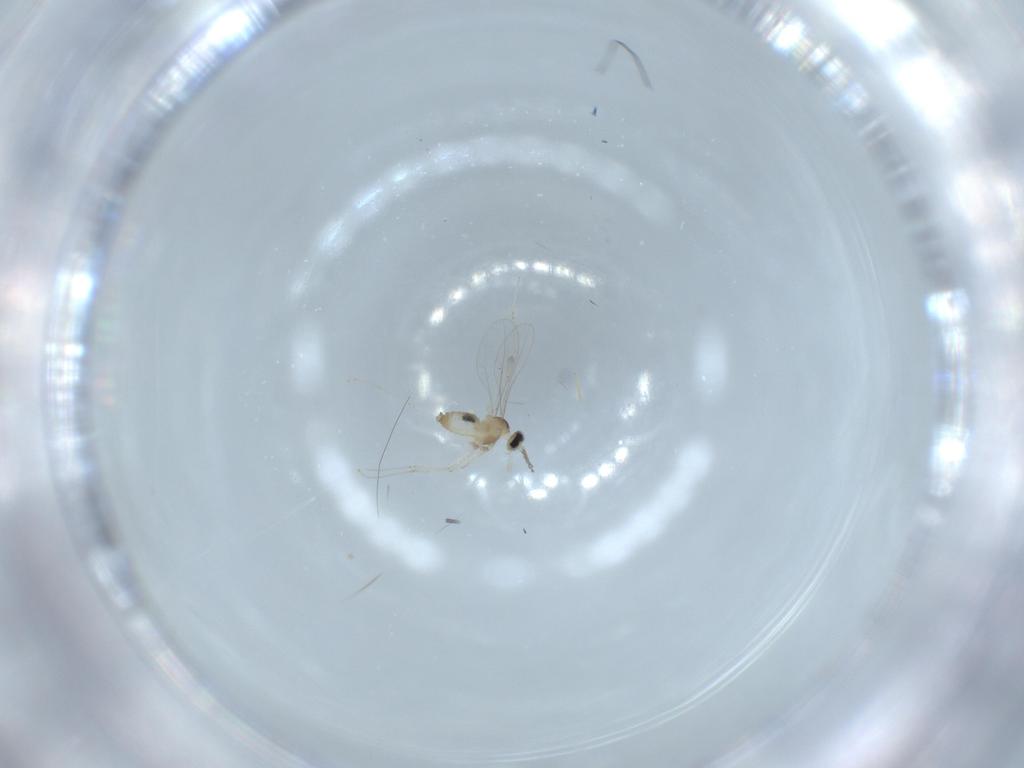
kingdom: Animalia
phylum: Arthropoda
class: Insecta
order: Diptera
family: Cecidomyiidae
